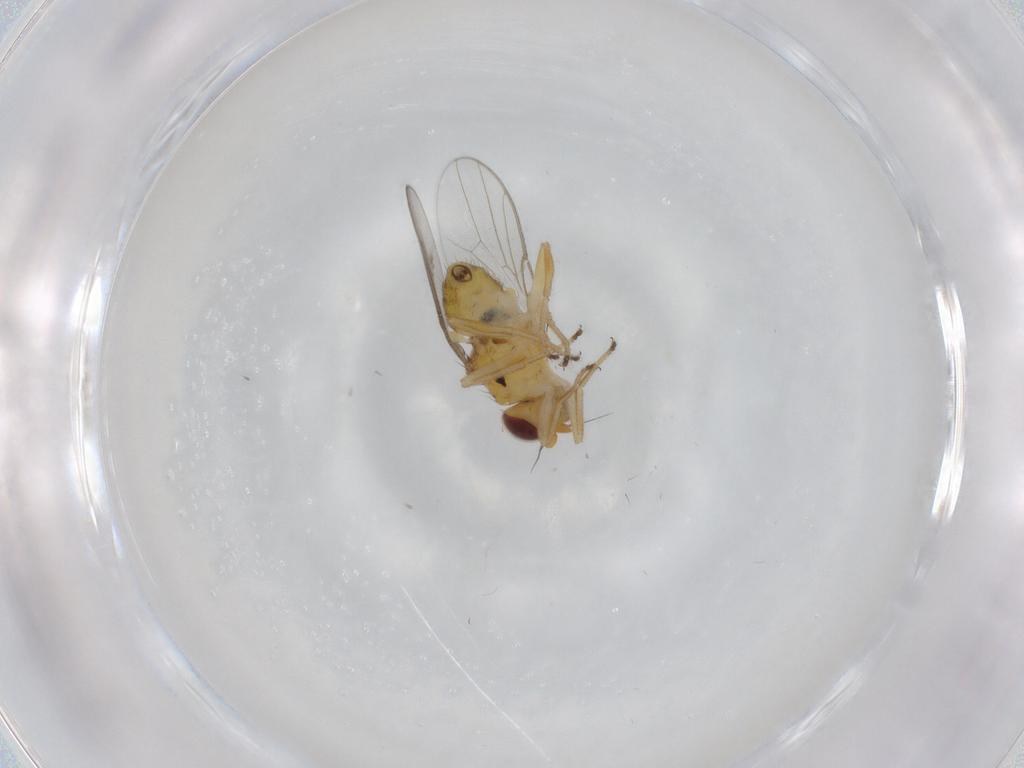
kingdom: Animalia
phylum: Arthropoda
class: Insecta
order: Diptera
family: Chloropidae
